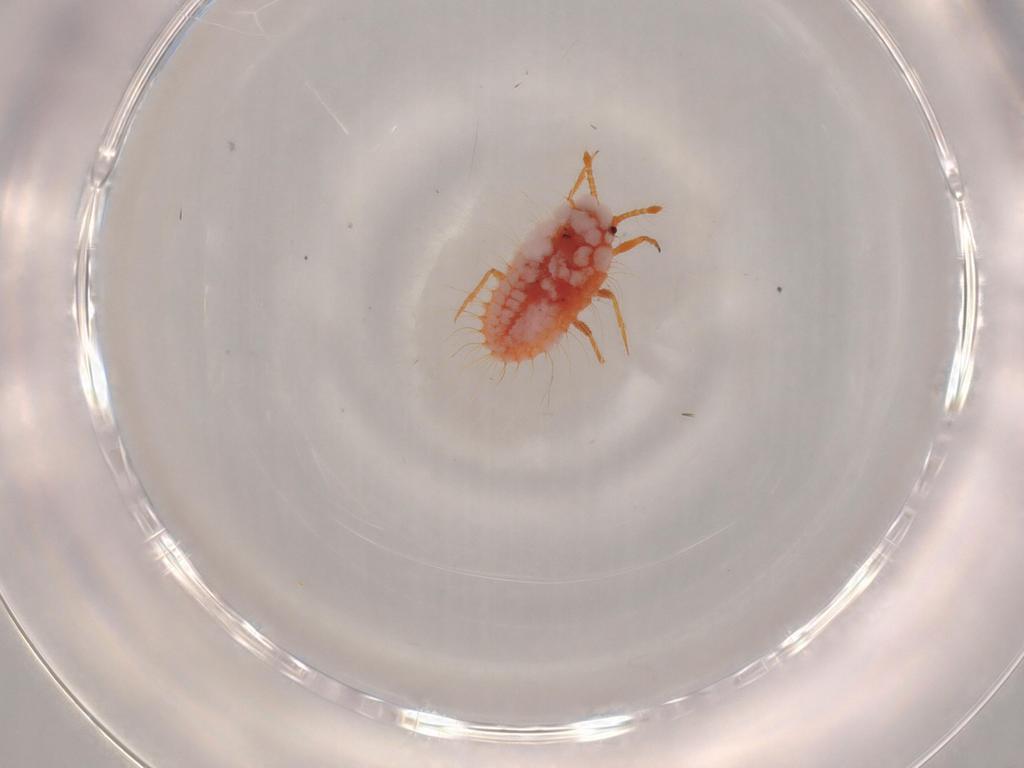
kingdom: Animalia
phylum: Arthropoda
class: Insecta
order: Hemiptera
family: Coccoidea_incertae_sedis
